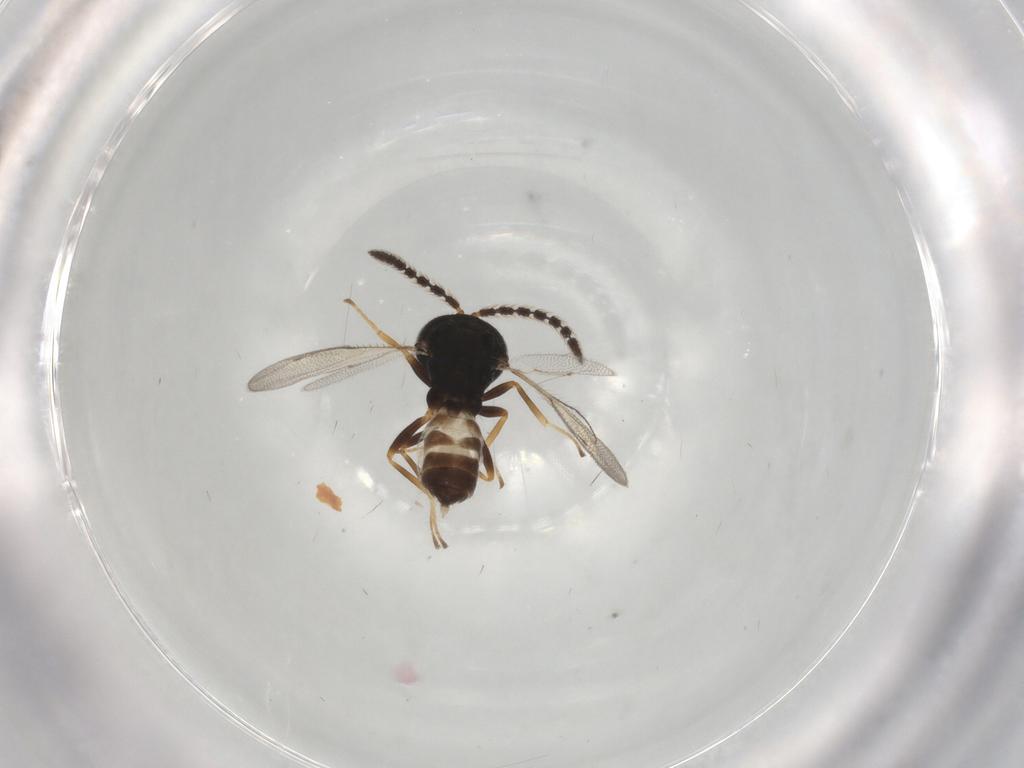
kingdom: Animalia
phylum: Arthropoda
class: Insecta
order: Hymenoptera
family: Pteromalidae
